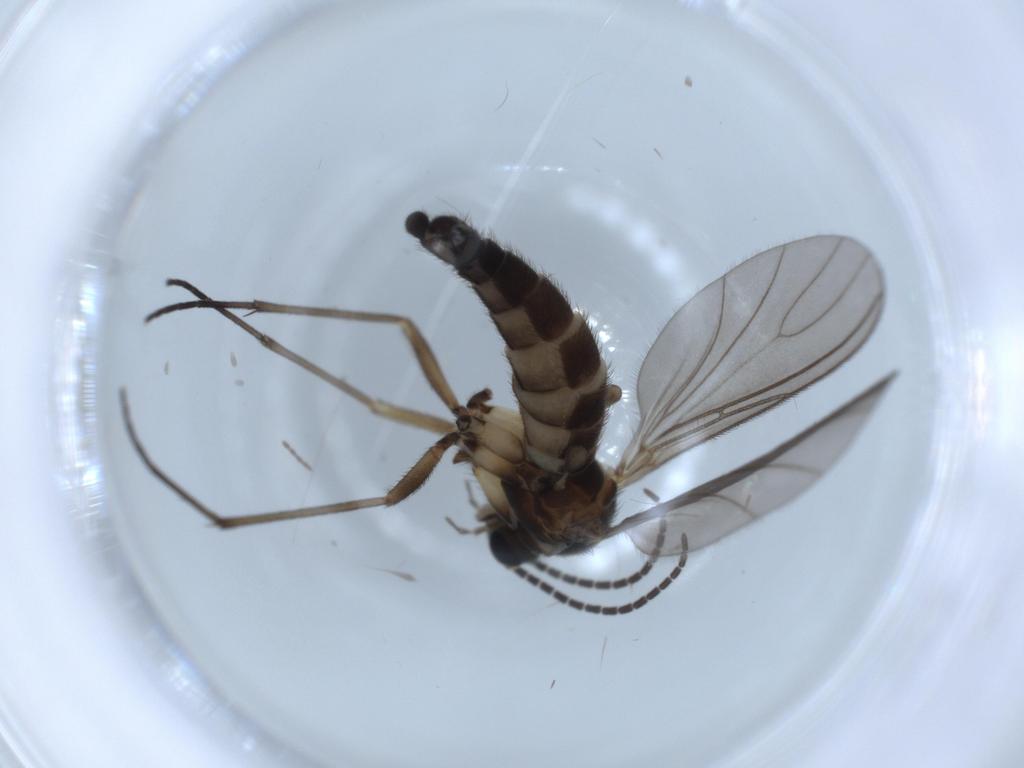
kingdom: Animalia
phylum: Arthropoda
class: Insecta
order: Diptera
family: Sciaridae
